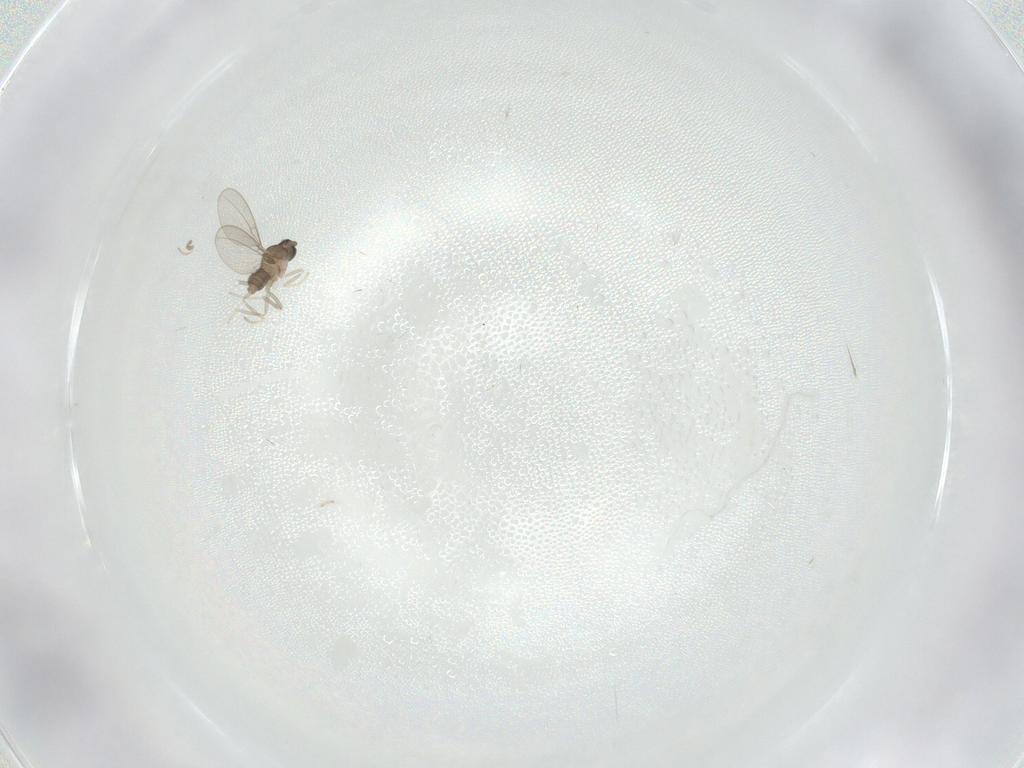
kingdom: Animalia
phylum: Arthropoda
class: Insecta
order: Diptera
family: Cecidomyiidae
